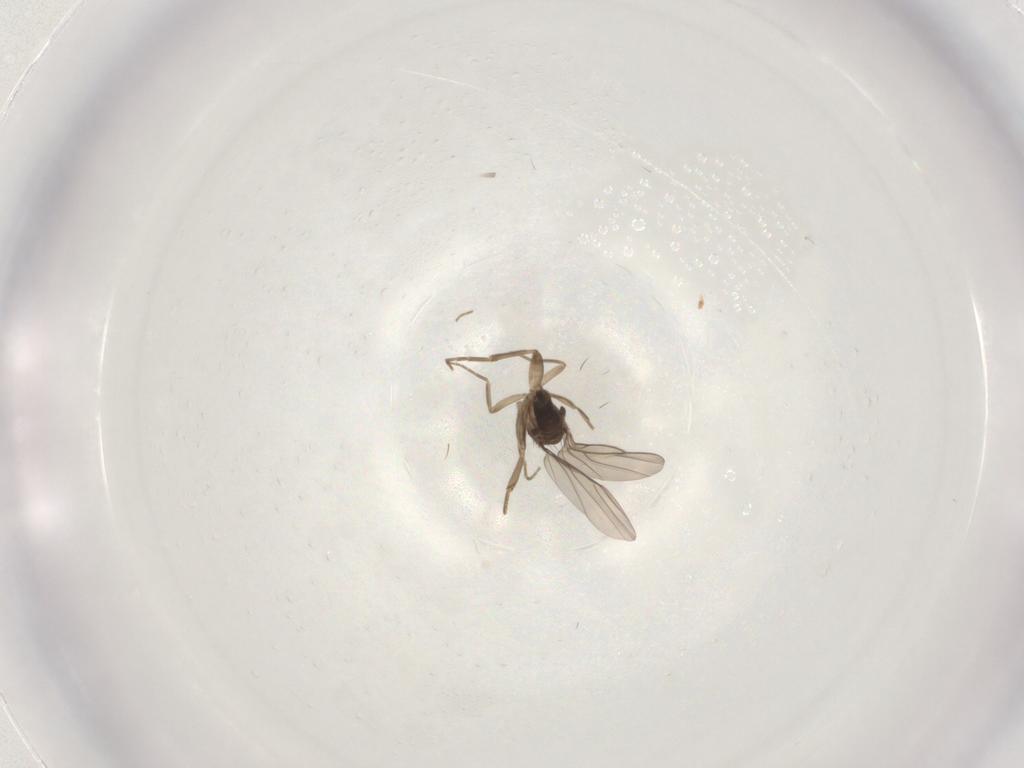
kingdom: Animalia
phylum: Arthropoda
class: Insecta
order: Diptera
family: Phoridae
